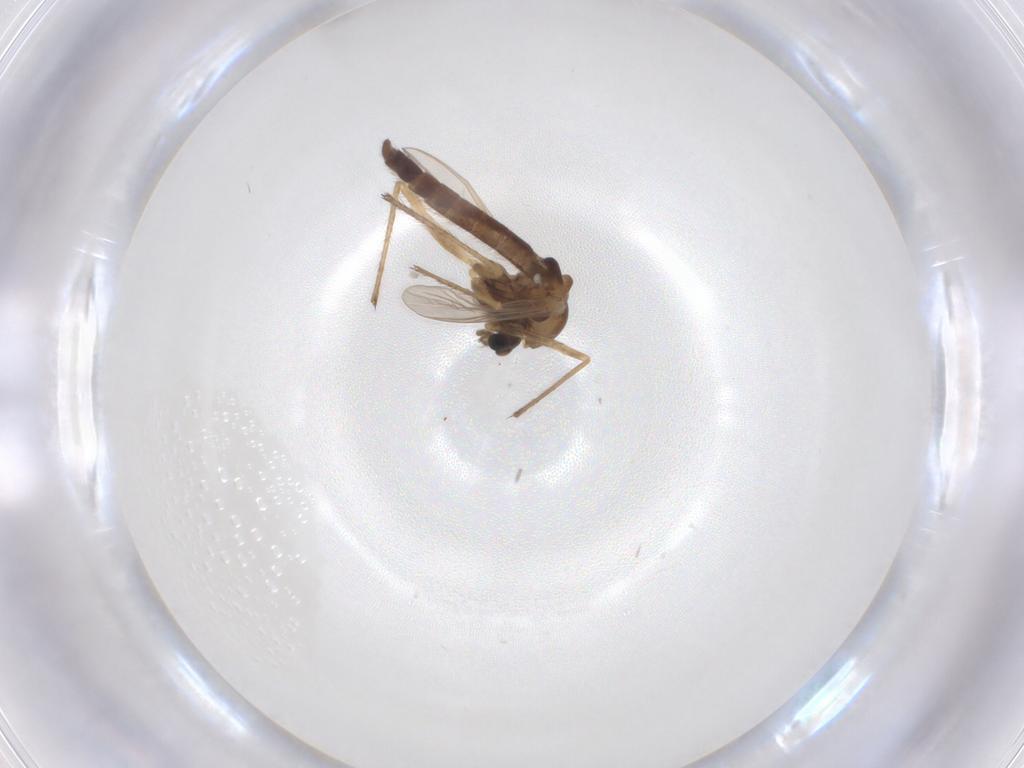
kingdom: Animalia
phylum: Arthropoda
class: Insecta
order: Diptera
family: Chironomidae
